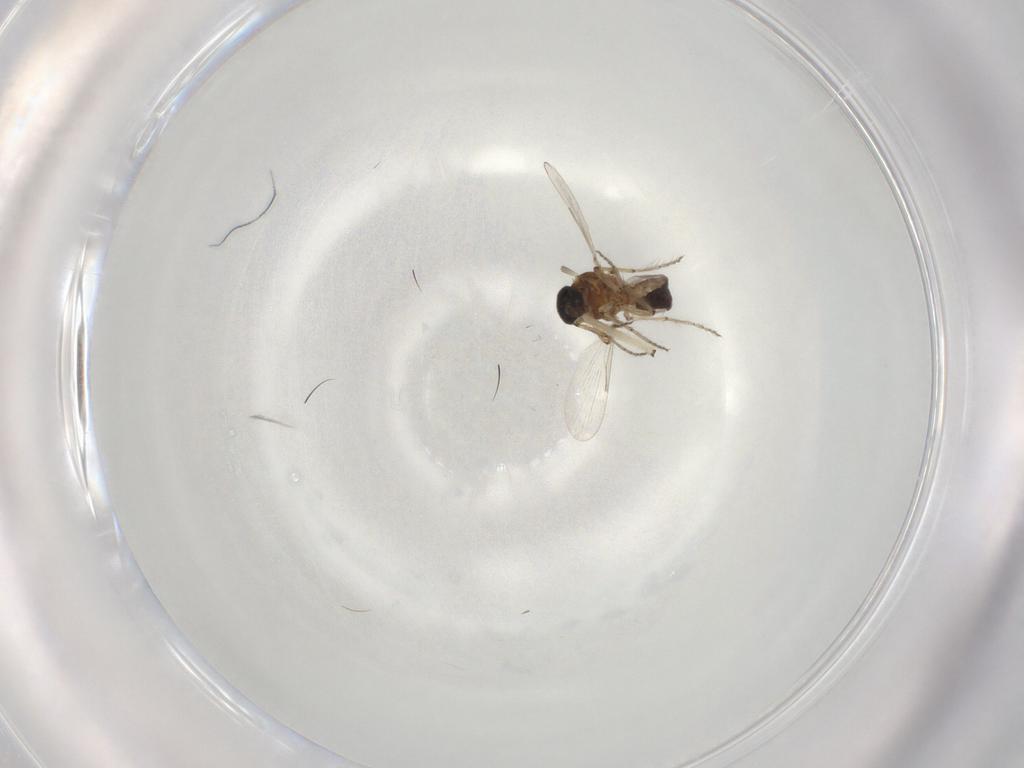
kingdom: Animalia
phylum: Arthropoda
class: Insecta
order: Diptera
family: Ceratopogonidae
